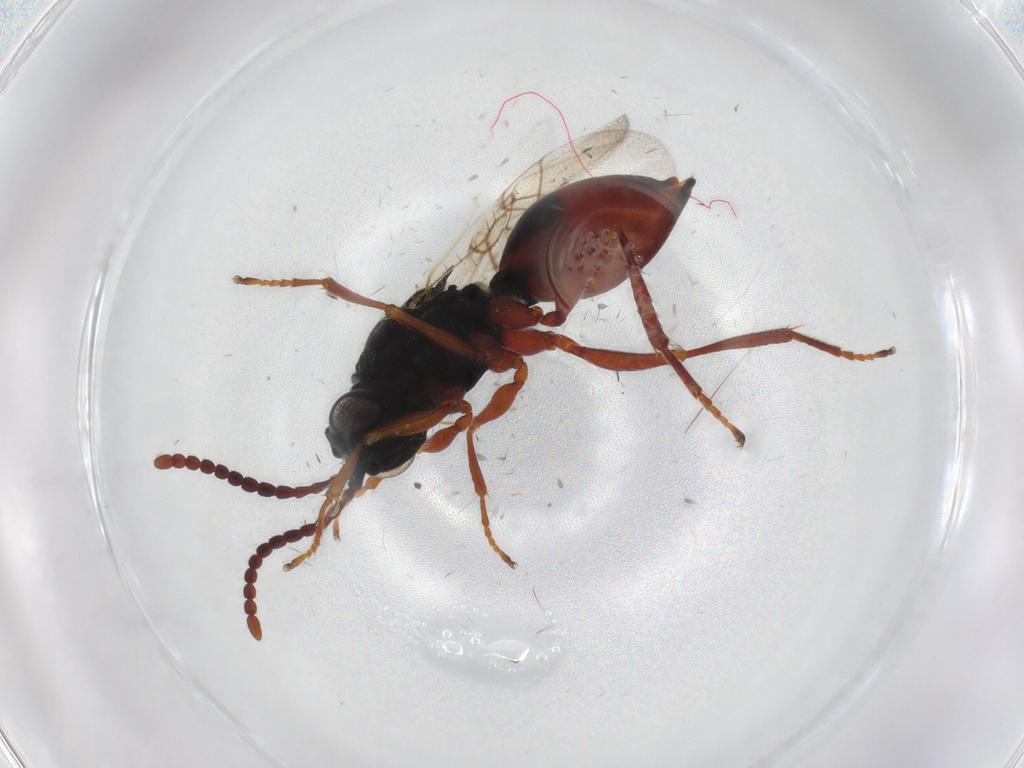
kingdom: Animalia
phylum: Arthropoda
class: Insecta
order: Hymenoptera
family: Figitidae
